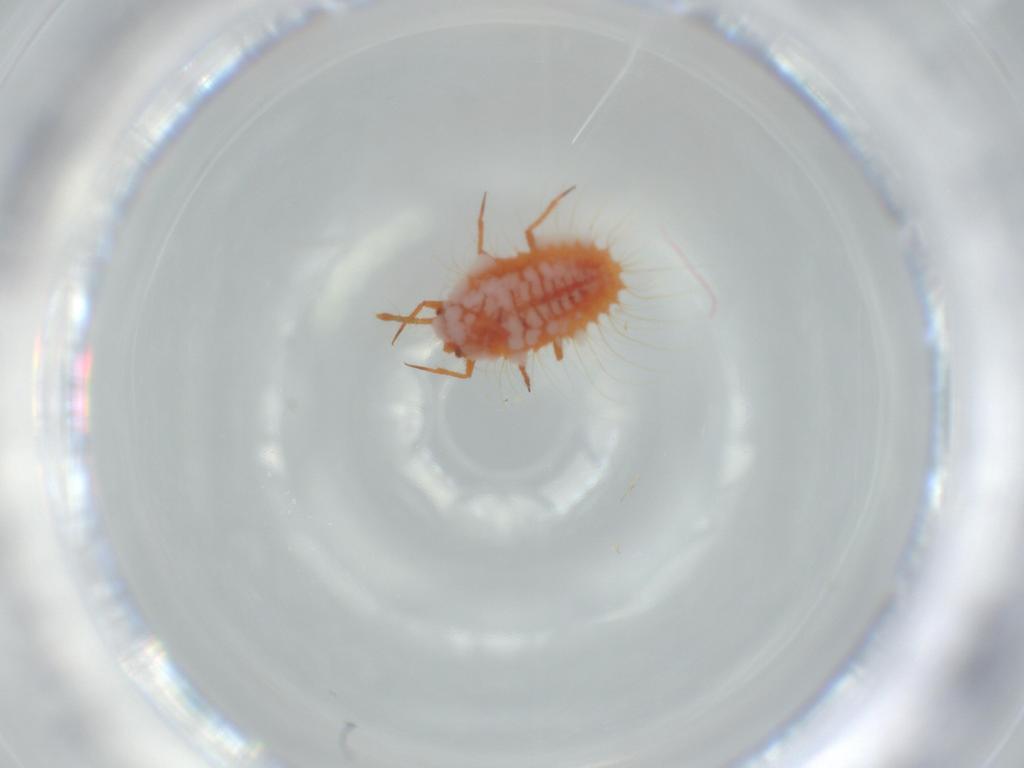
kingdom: Animalia
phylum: Arthropoda
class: Insecta
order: Hemiptera
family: Coccoidea_incertae_sedis
